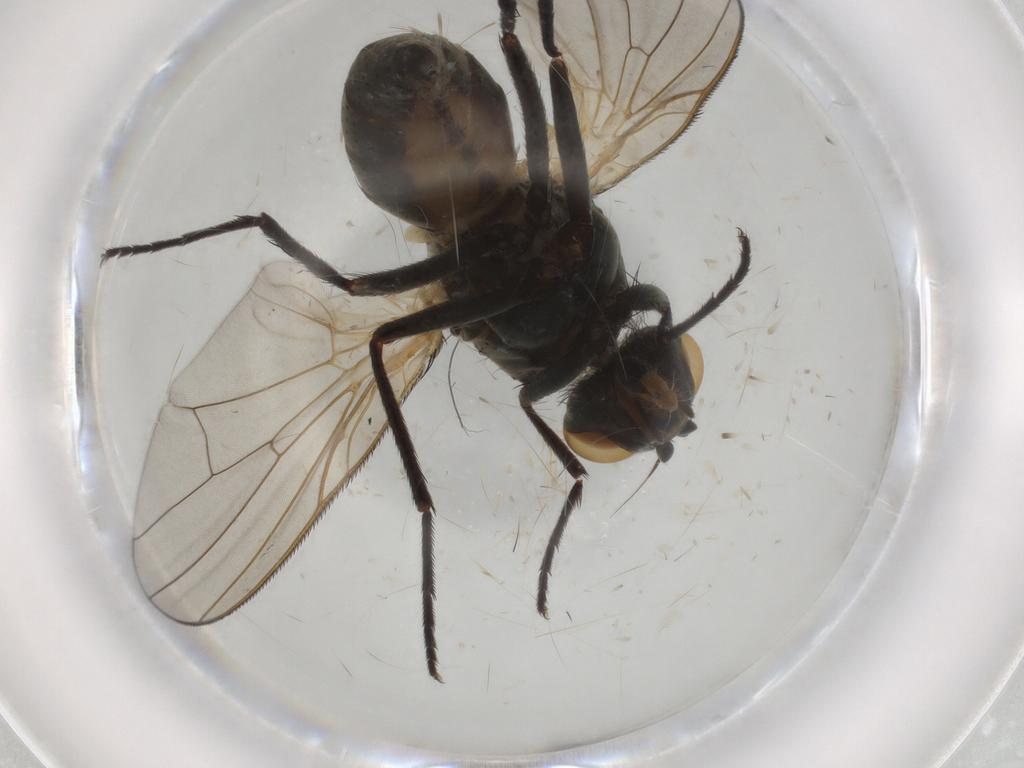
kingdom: Animalia
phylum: Arthropoda
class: Insecta
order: Diptera
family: Anthomyiidae
